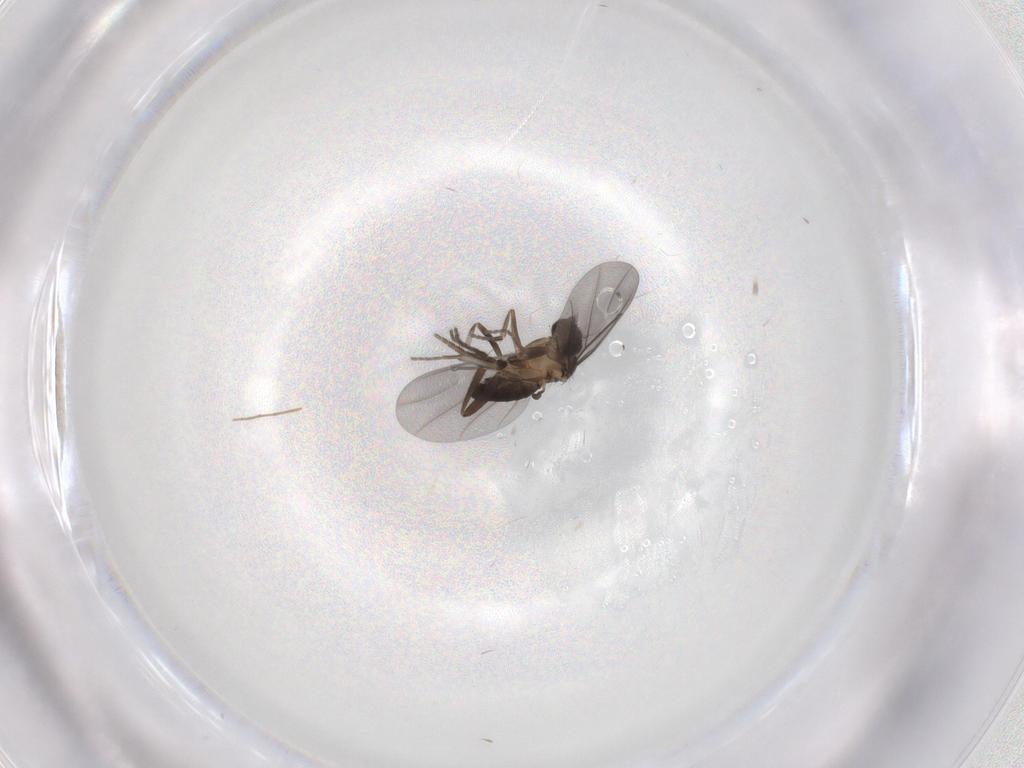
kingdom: Animalia
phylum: Arthropoda
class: Insecta
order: Diptera
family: Phoridae
